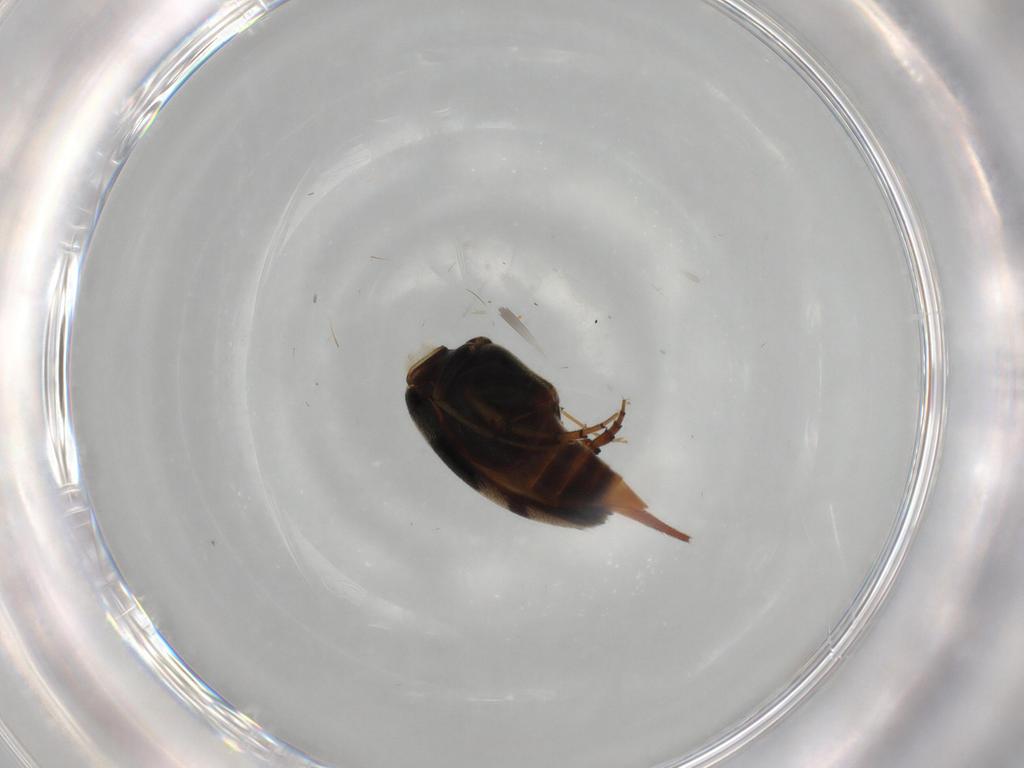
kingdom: Animalia
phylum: Arthropoda
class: Insecta
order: Coleoptera
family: Mordellidae
